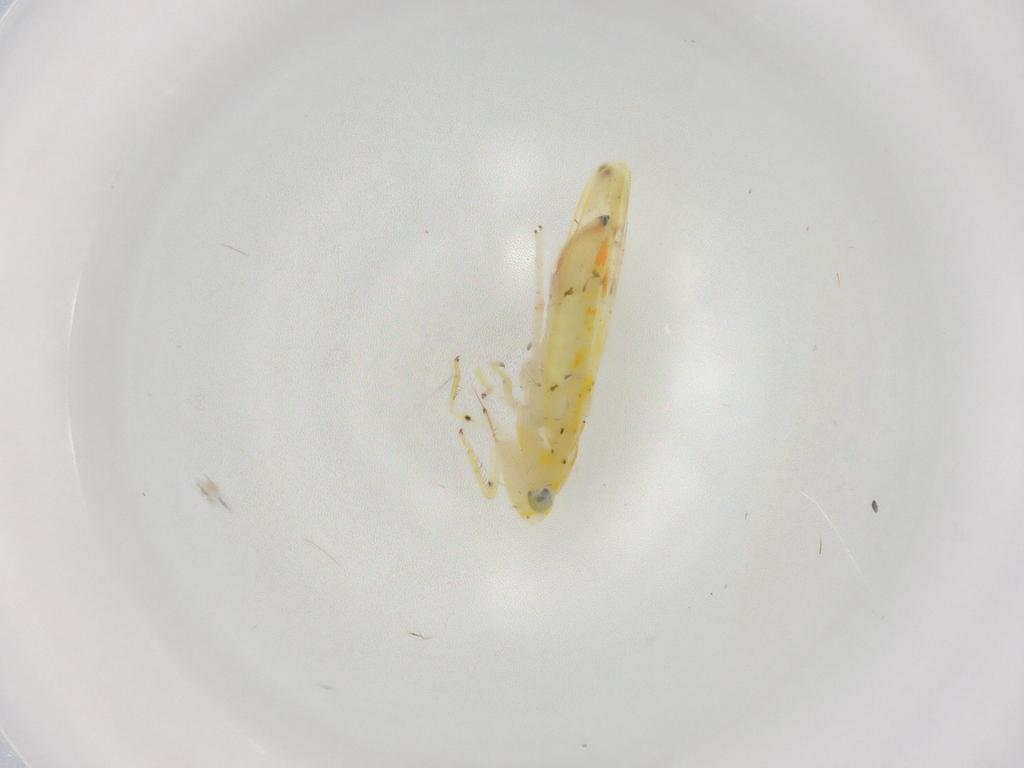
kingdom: Animalia
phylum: Arthropoda
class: Insecta
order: Hemiptera
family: Cicadellidae
